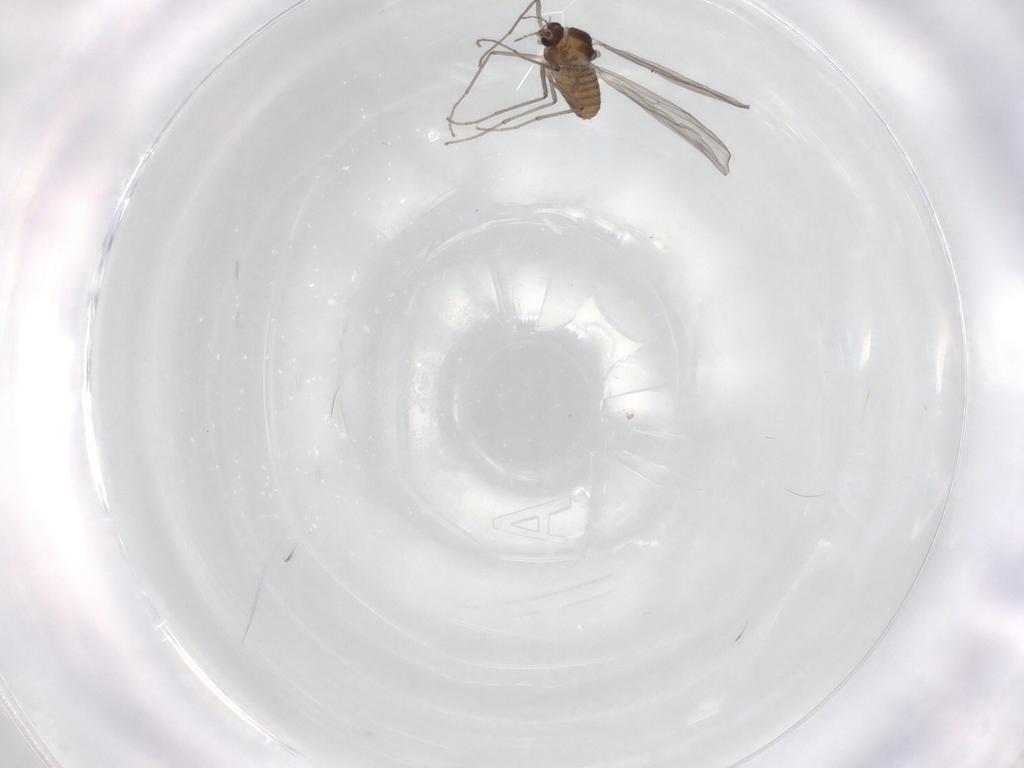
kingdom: Animalia
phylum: Arthropoda
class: Insecta
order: Diptera
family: Chironomidae
